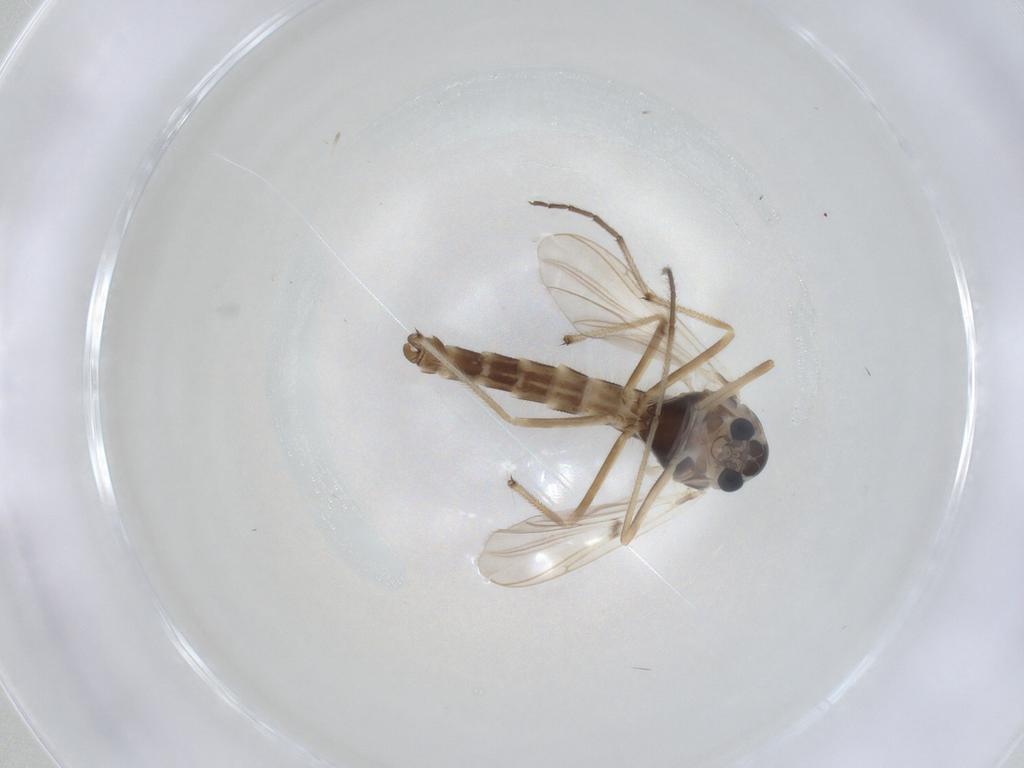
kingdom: Animalia
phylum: Arthropoda
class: Insecta
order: Diptera
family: Chironomidae
